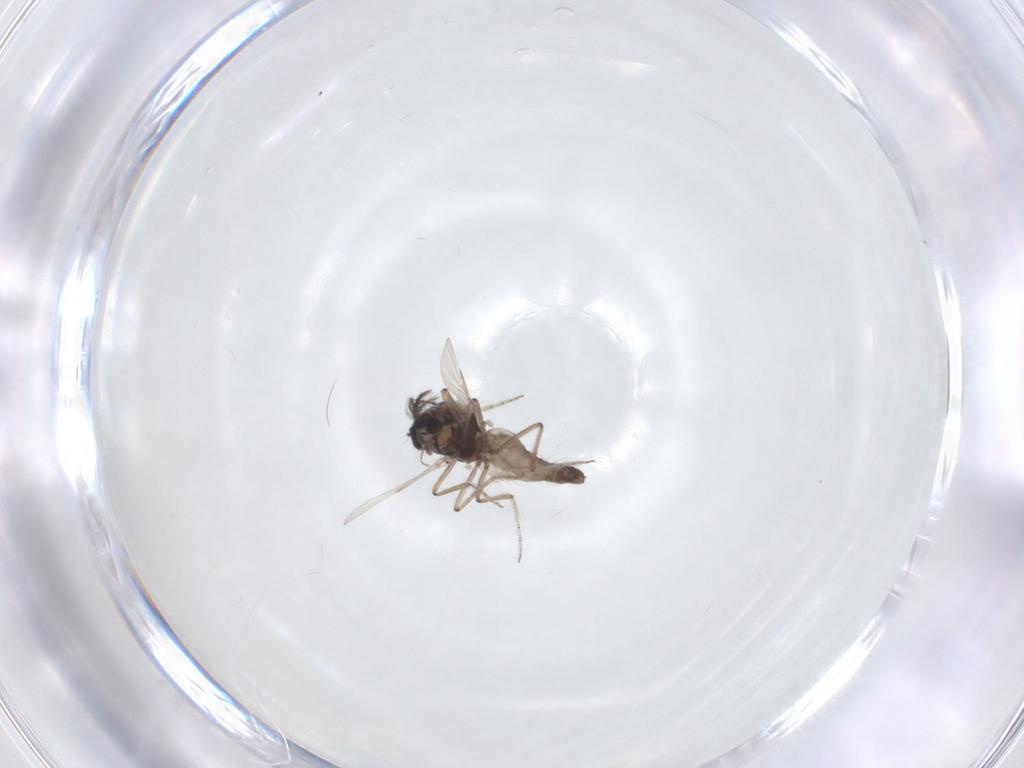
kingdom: Animalia
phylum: Arthropoda
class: Insecta
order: Diptera
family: Ceratopogonidae
